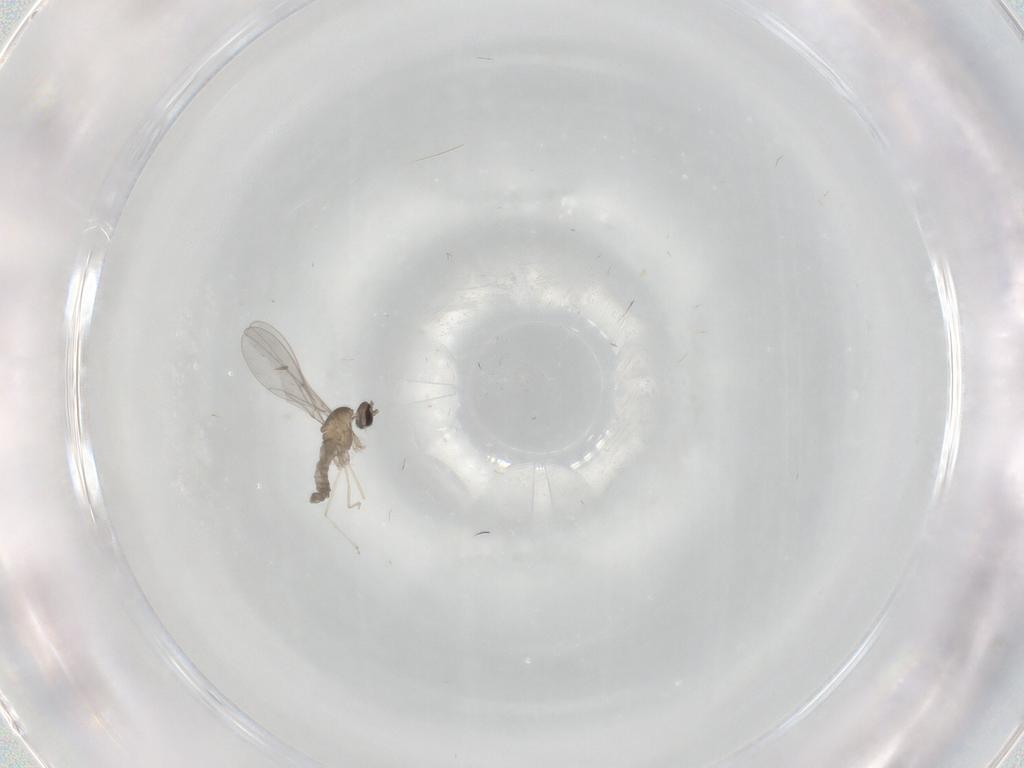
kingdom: Animalia
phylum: Arthropoda
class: Insecta
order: Diptera
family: Cecidomyiidae
